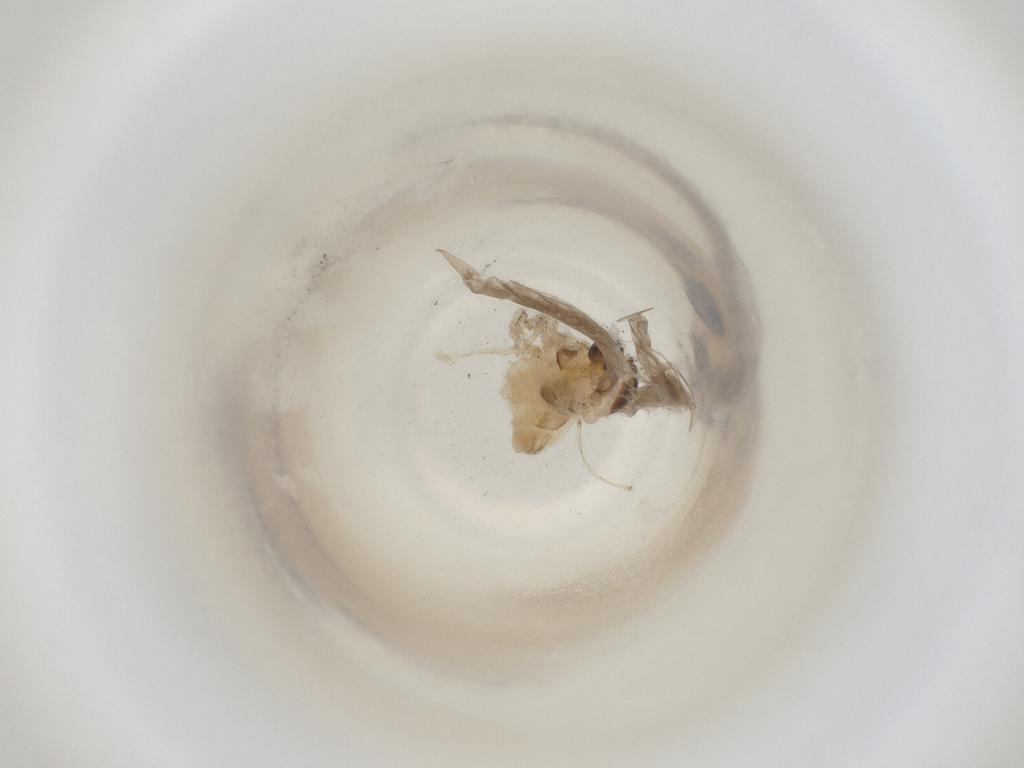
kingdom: Animalia
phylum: Arthropoda
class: Insecta
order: Diptera
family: Cecidomyiidae
